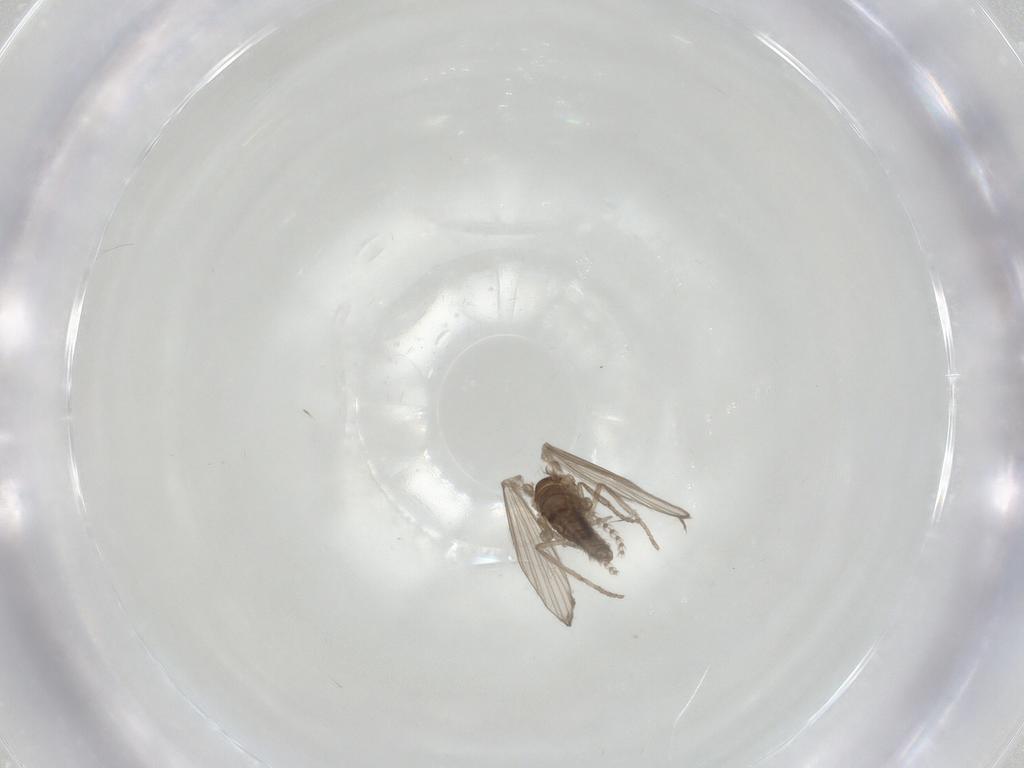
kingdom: Animalia
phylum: Arthropoda
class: Insecta
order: Diptera
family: Psychodidae
